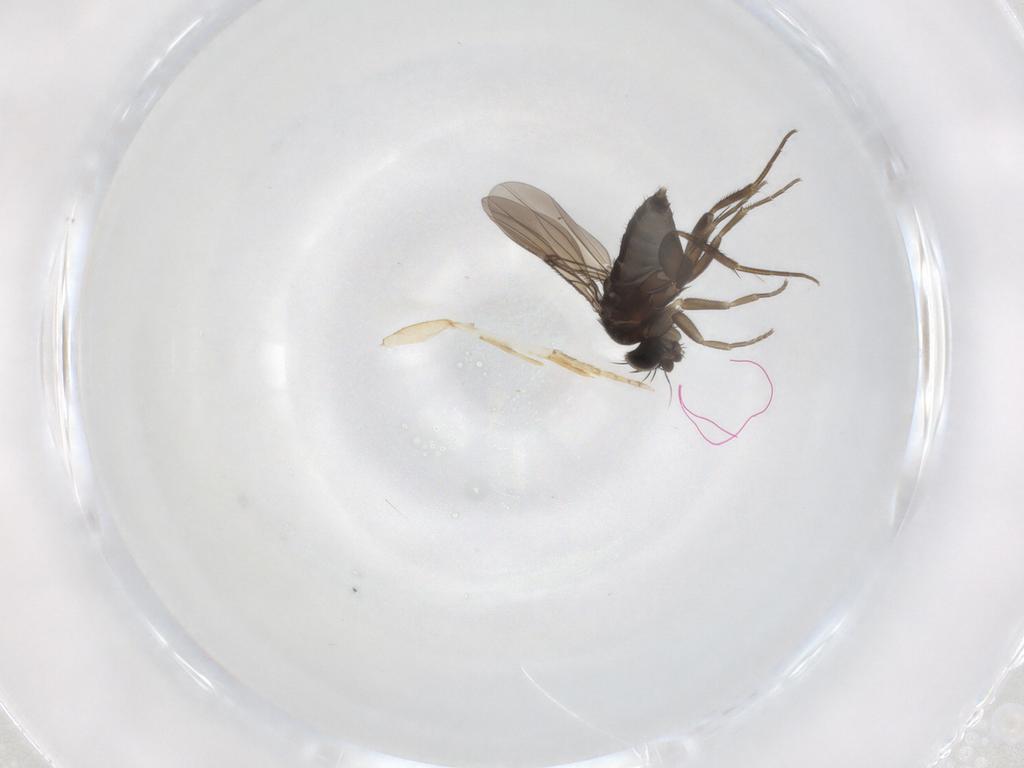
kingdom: Animalia
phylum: Arthropoda
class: Insecta
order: Diptera
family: Phoridae
